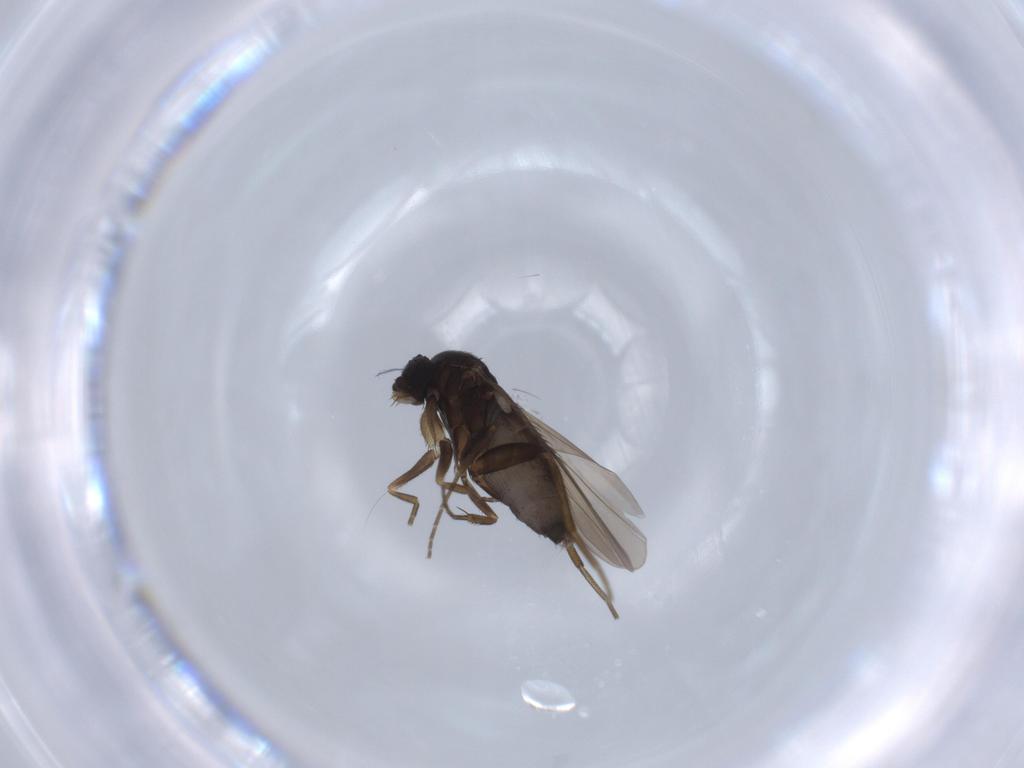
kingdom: Animalia
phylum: Arthropoda
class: Insecta
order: Diptera
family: Phoridae
